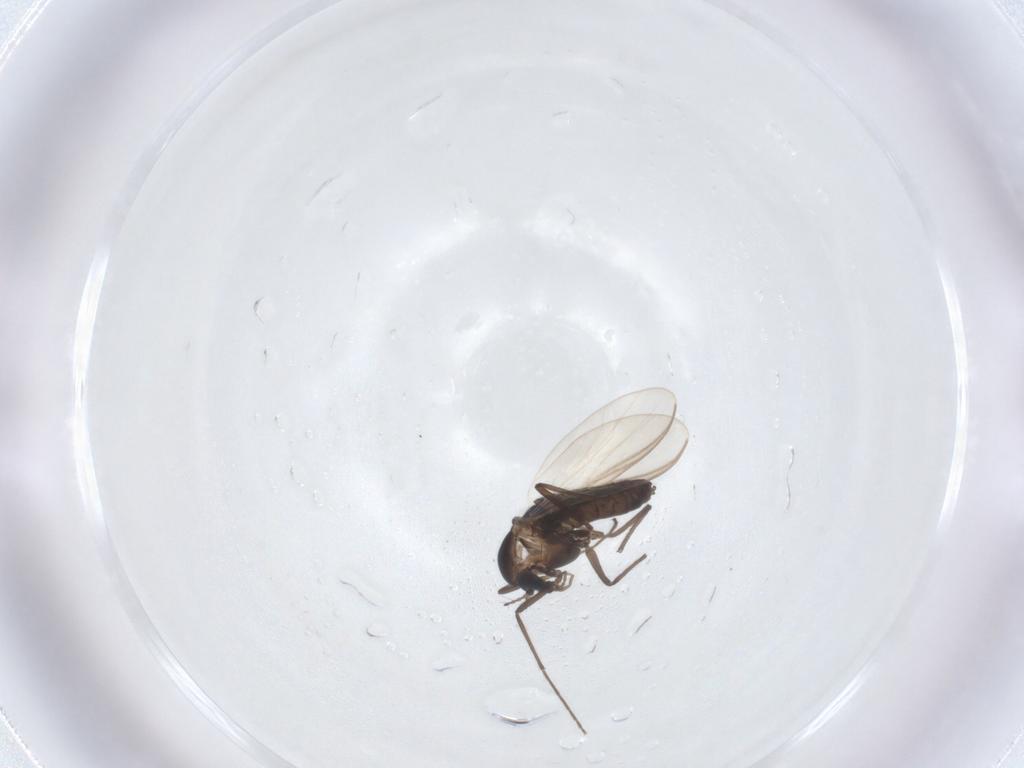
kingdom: Animalia
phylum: Arthropoda
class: Insecta
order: Diptera
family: Chironomidae
